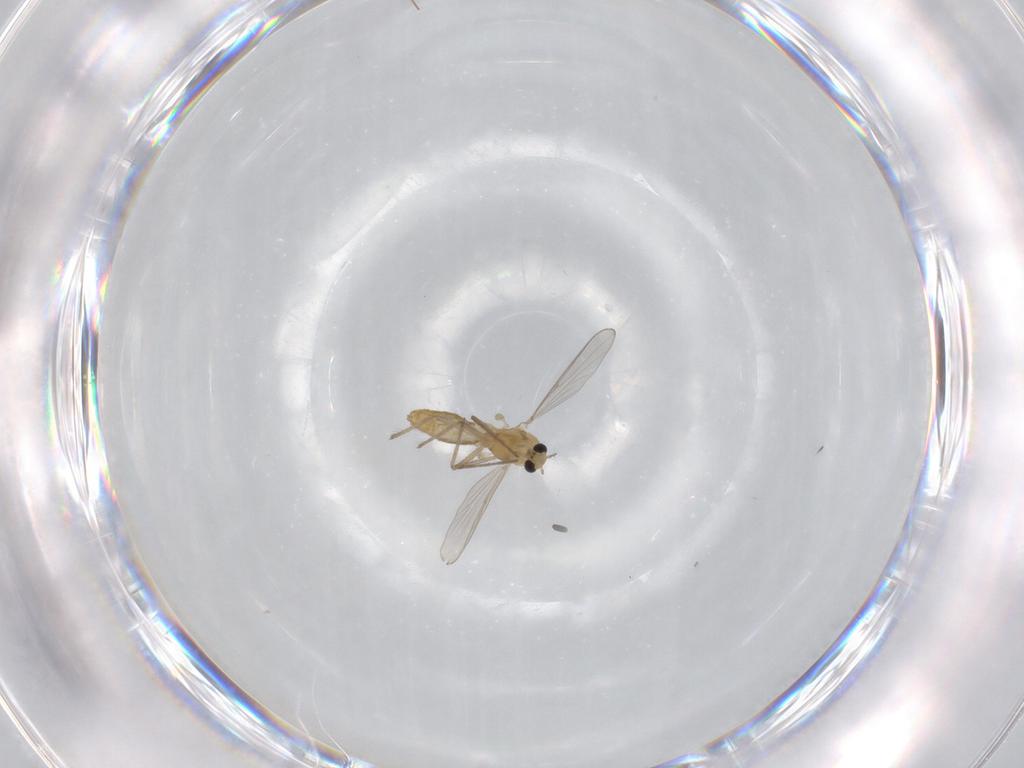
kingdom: Animalia
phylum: Arthropoda
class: Insecta
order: Diptera
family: Chironomidae
